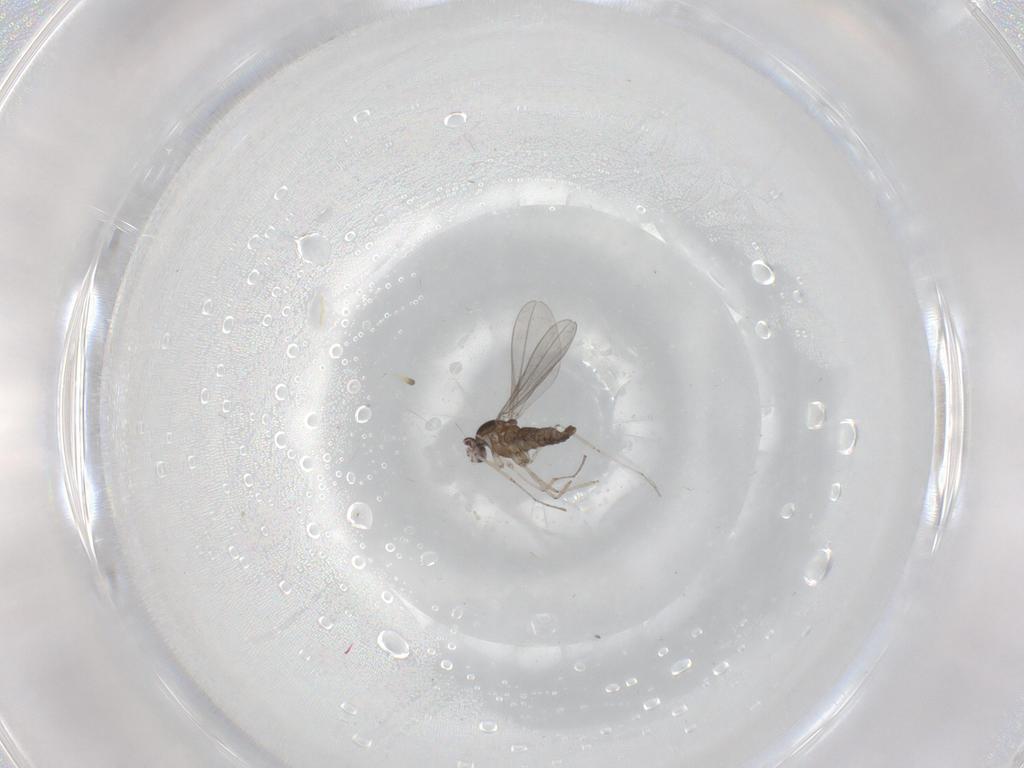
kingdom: Animalia
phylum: Arthropoda
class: Insecta
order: Diptera
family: Cecidomyiidae
